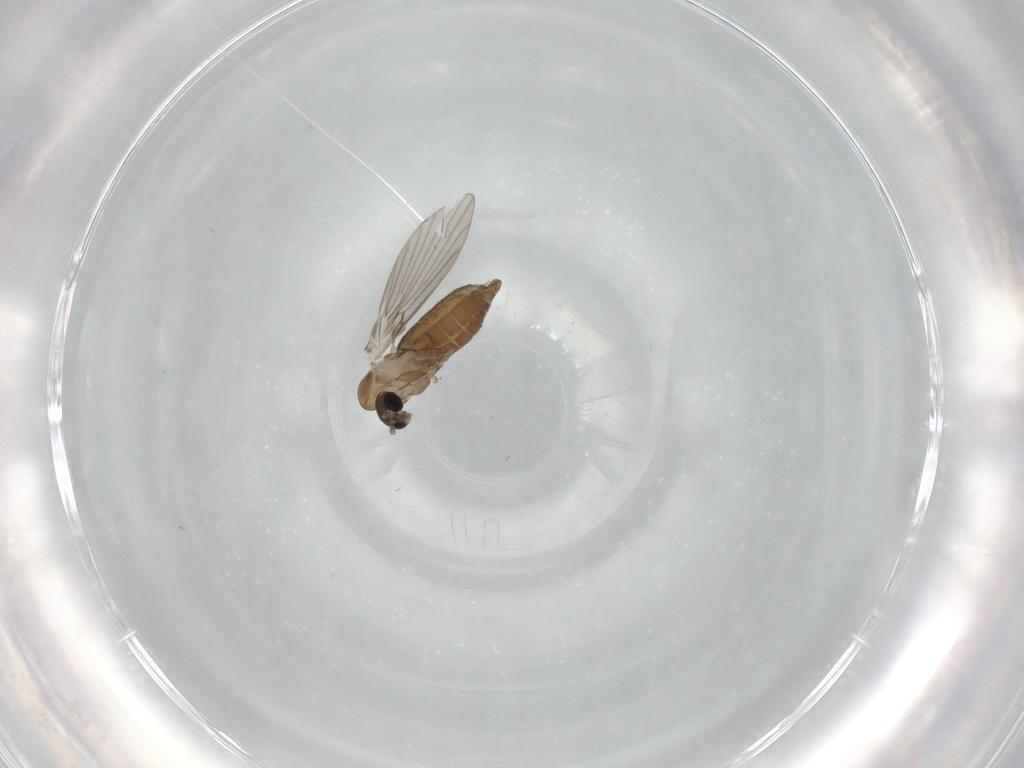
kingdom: Animalia
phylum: Arthropoda
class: Insecta
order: Diptera
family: Psychodidae
